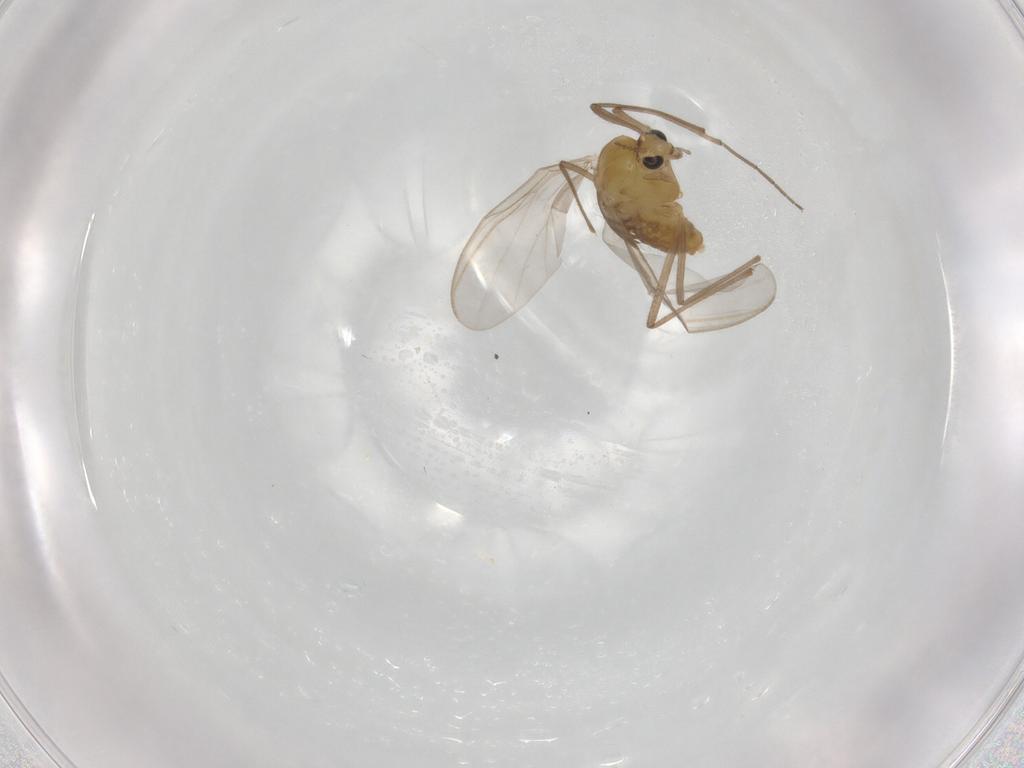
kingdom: Animalia
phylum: Arthropoda
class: Insecta
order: Diptera
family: Chironomidae
